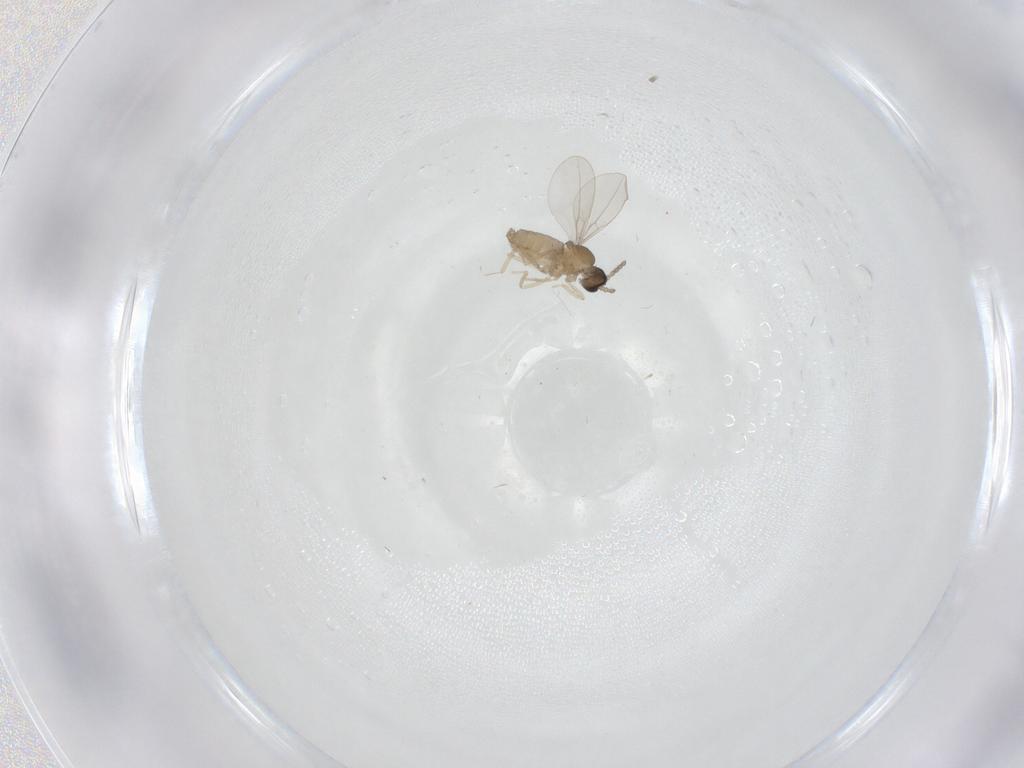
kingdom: Animalia
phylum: Arthropoda
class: Insecta
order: Diptera
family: Cecidomyiidae
